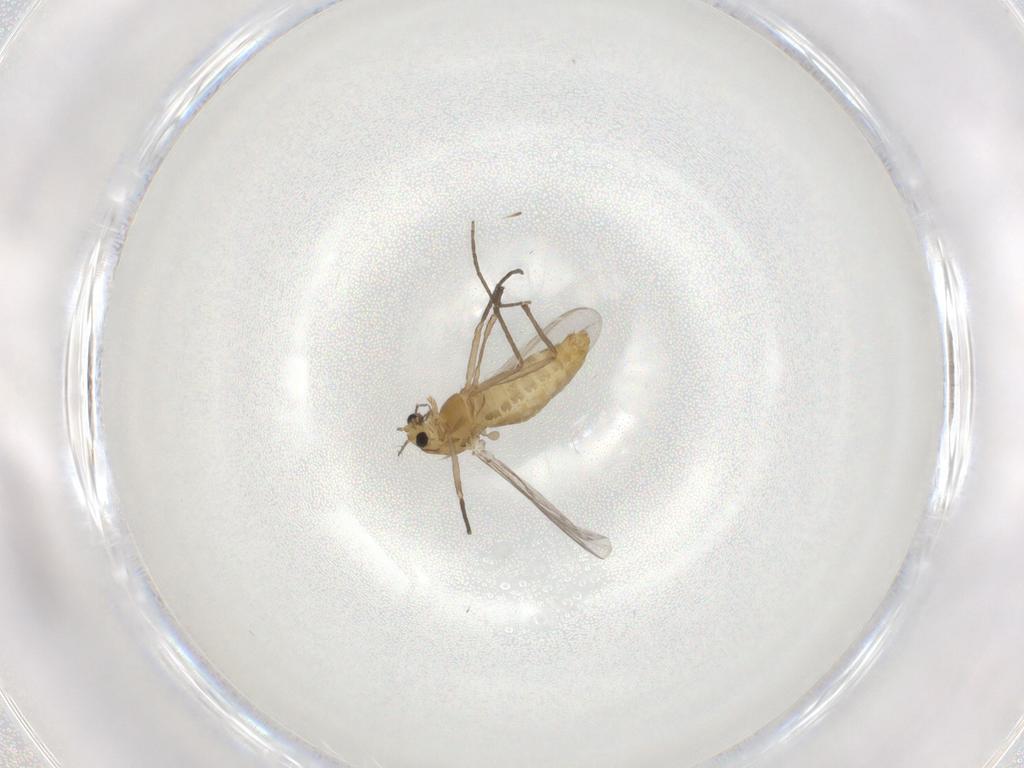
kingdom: Animalia
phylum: Arthropoda
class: Insecta
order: Diptera
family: Chironomidae
